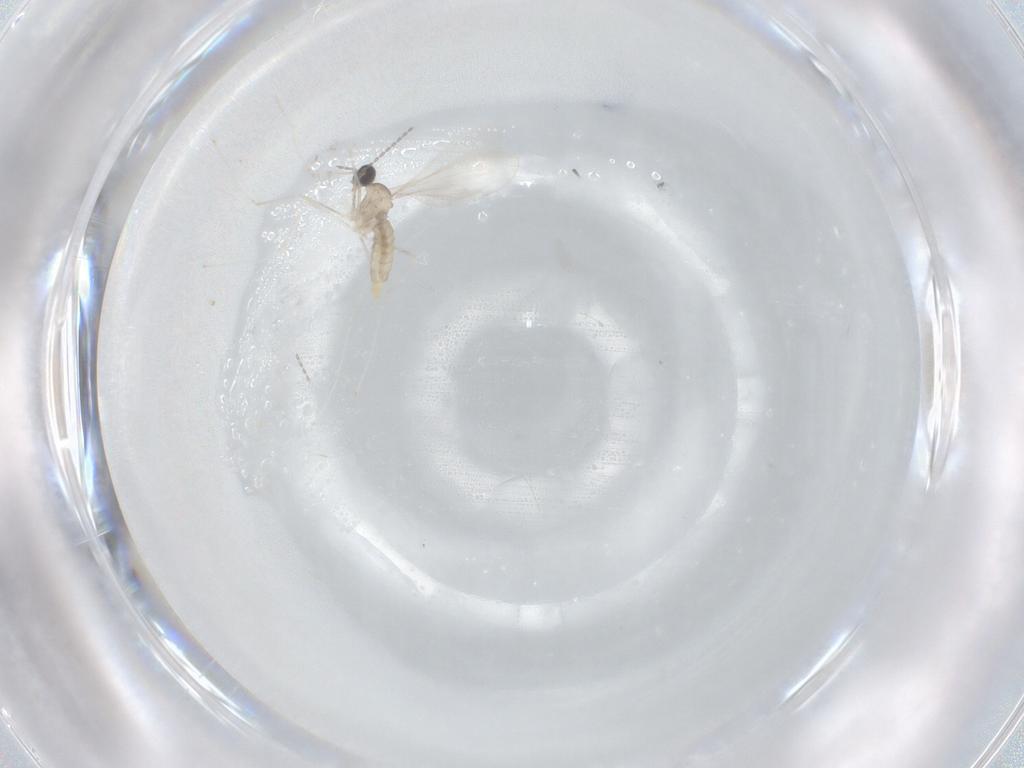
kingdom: Animalia
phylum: Arthropoda
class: Insecta
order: Diptera
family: Cecidomyiidae
